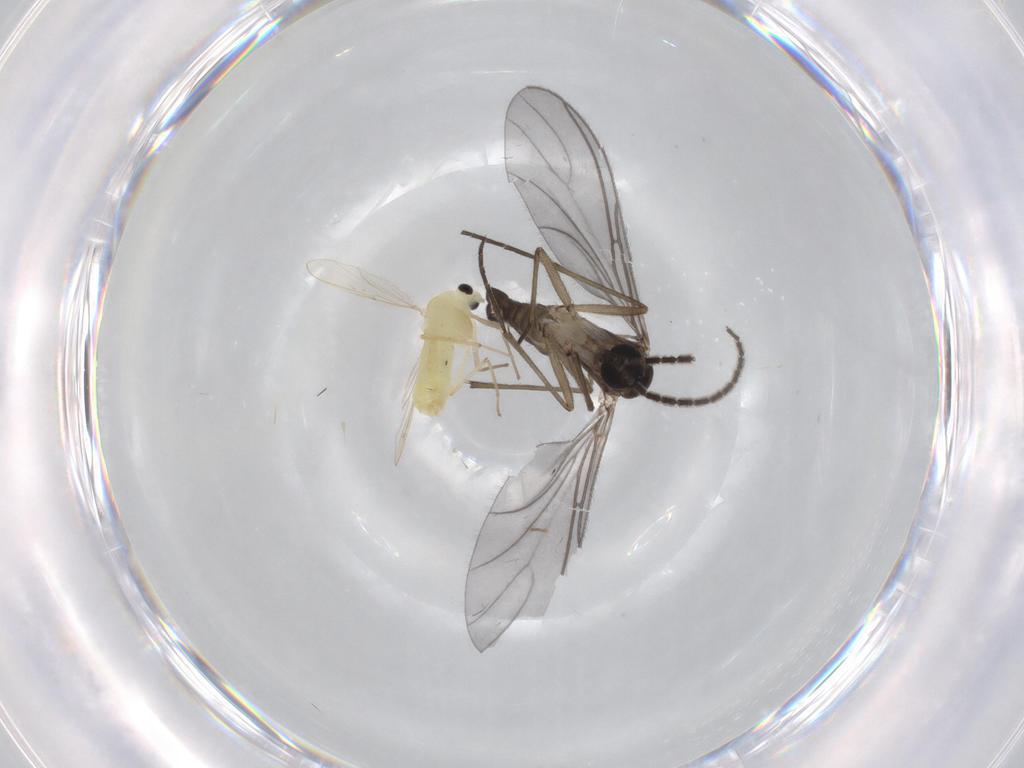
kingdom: Animalia
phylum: Arthropoda
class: Insecta
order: Diptera
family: Chironomidae
